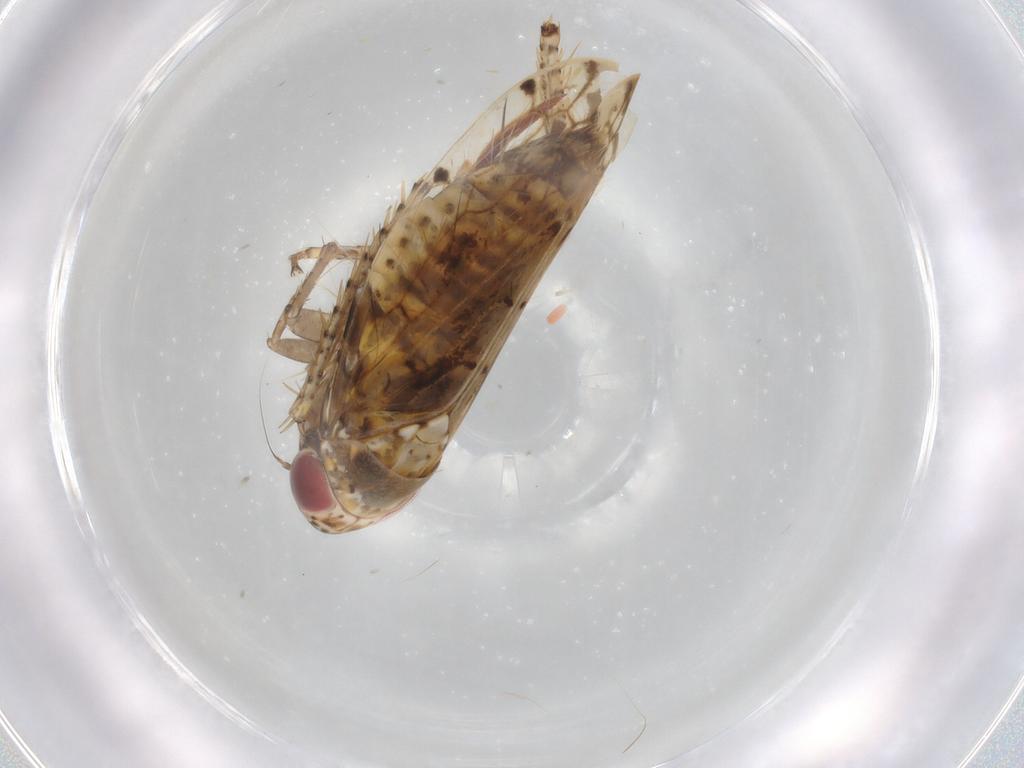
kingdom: Animalia
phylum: Arthropoda
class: Insecta
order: Hemiptera
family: Cicadellidae
